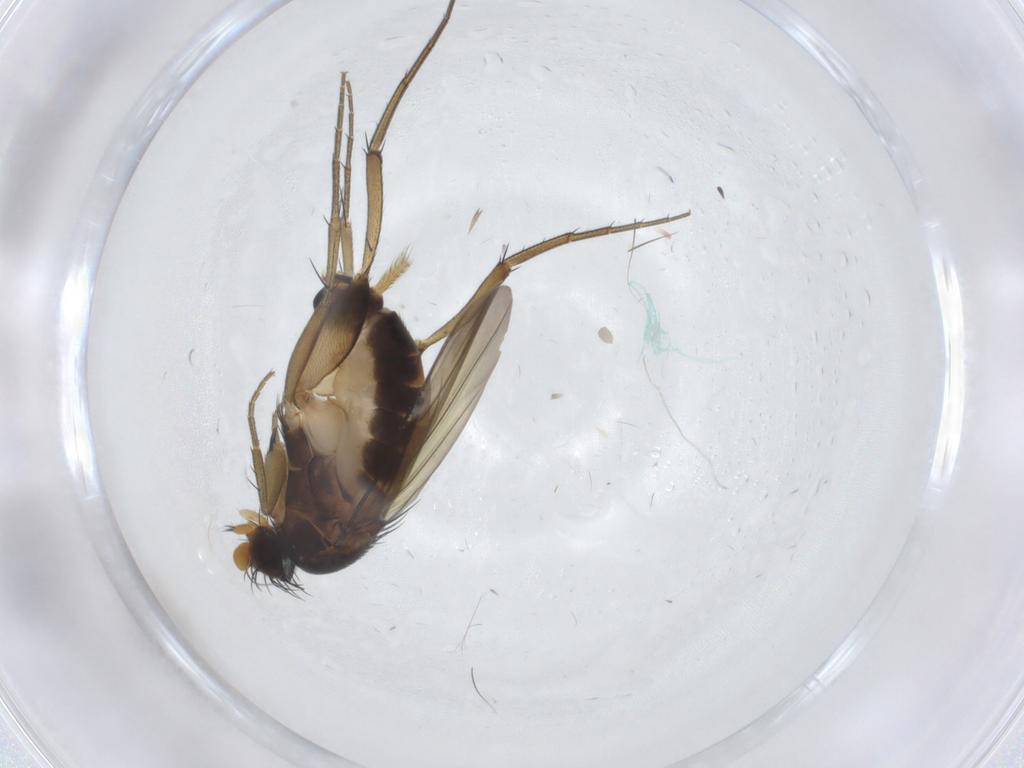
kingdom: Animalia
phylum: Arthropoda
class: Insecta
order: Diptera
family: Phoridae
